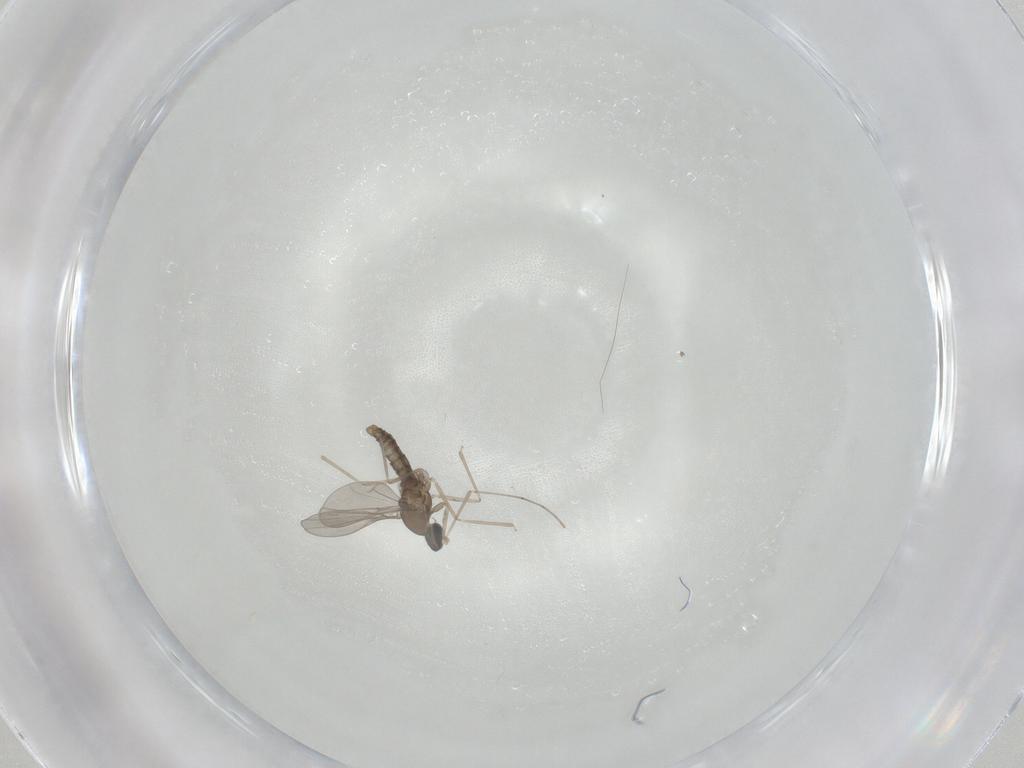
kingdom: Animalia
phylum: Arthropoda
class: Insecta
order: Diptera
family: Cecidomyiidae
